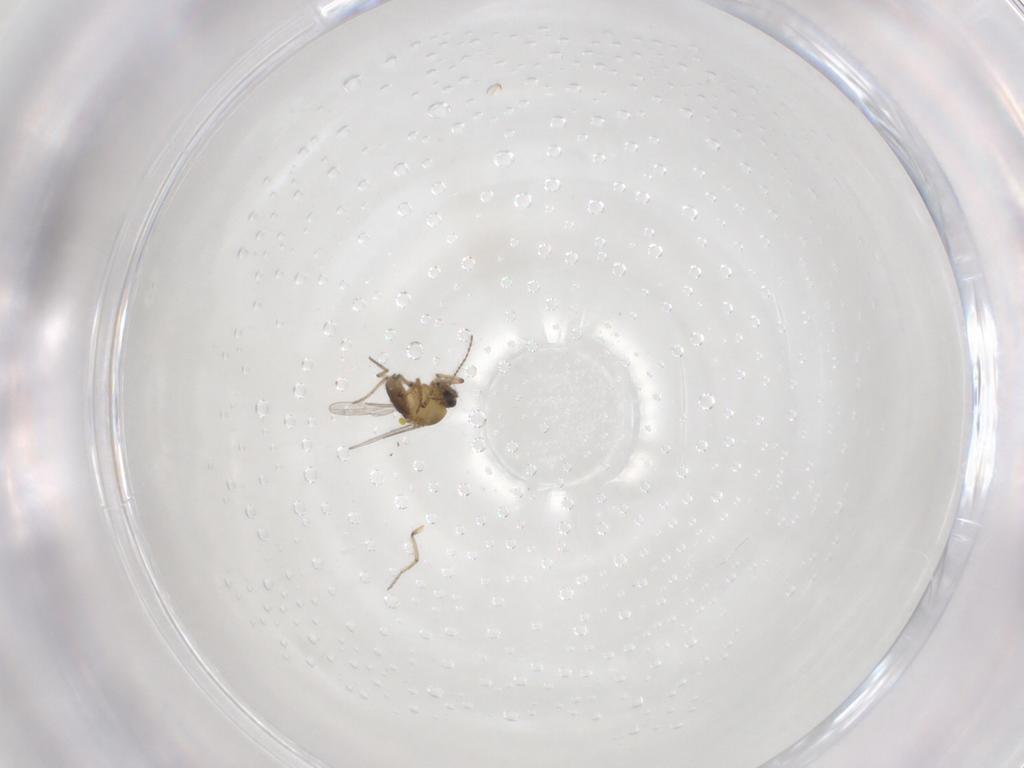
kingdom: Animalia
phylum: Arthropoda
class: Insecta
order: Diptera
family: Ceratopogonidae
